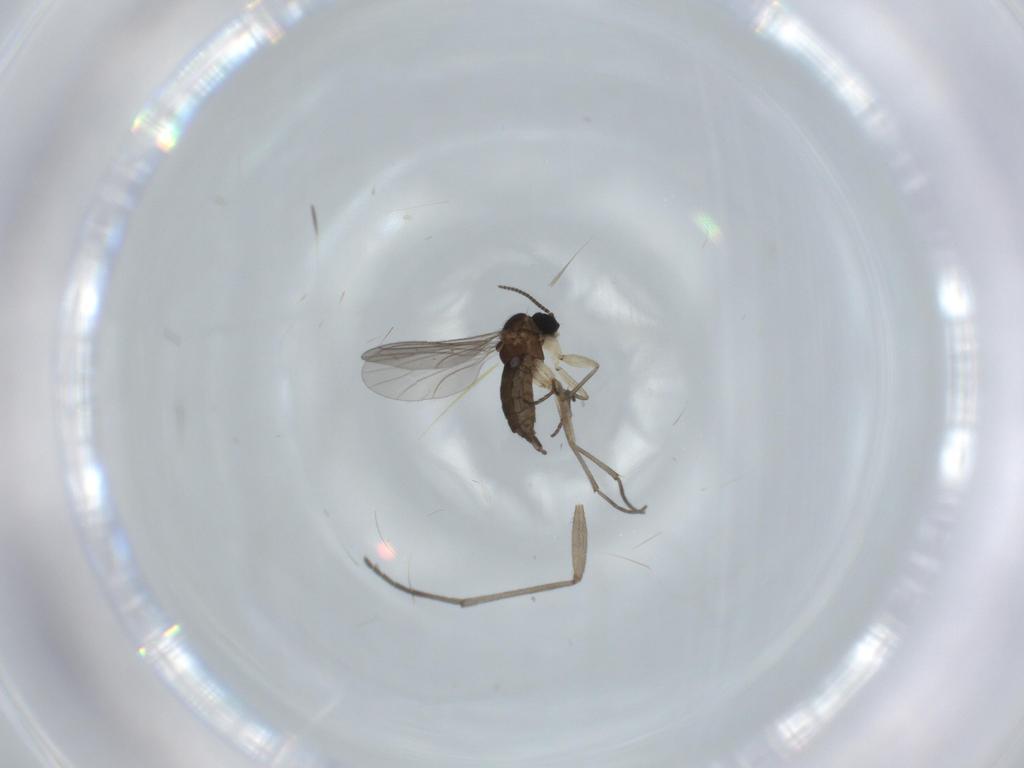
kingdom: Animalia
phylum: Arthropoda
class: Insecta
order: Diptera
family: Sciaridae
